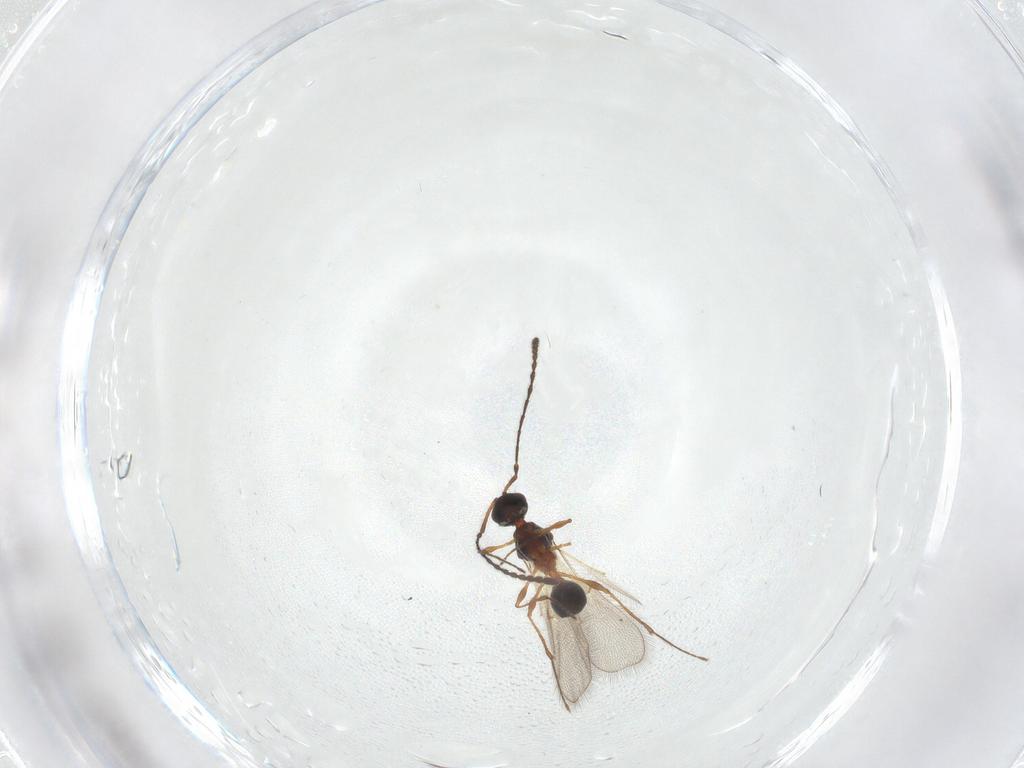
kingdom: Animalia
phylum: Arthropoda
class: Insecta
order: Hymenoptera
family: Diapriidae
